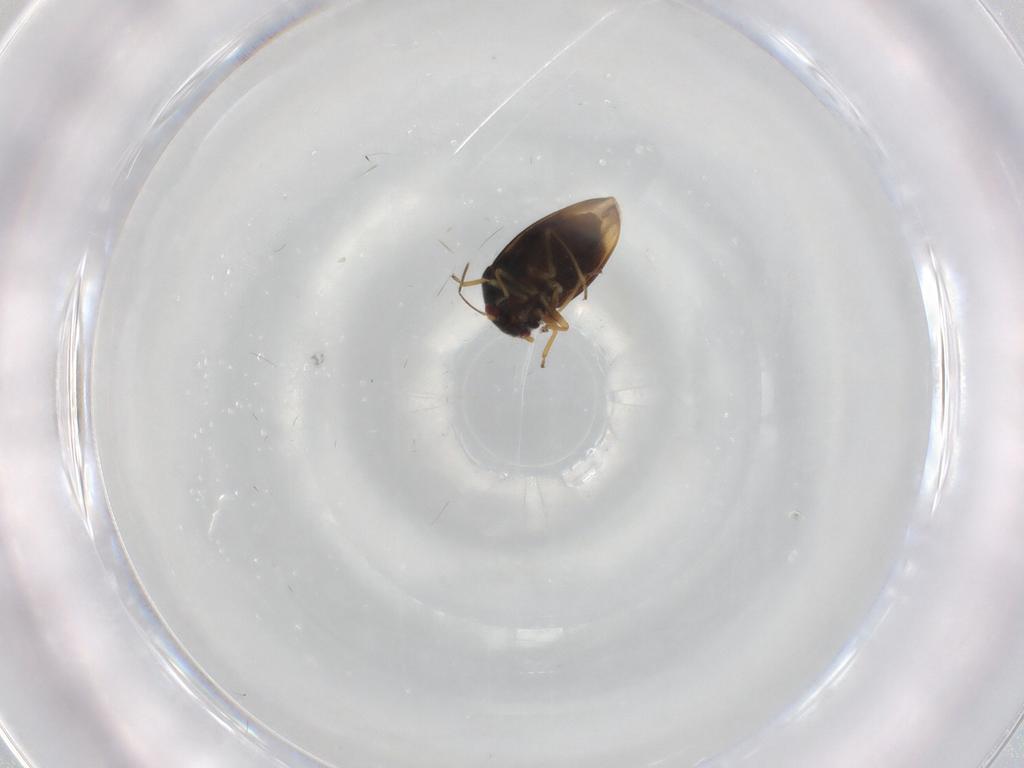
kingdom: Animalia
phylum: Arthropoda
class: Insecta
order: Hemiptera
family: Schizopteridae
